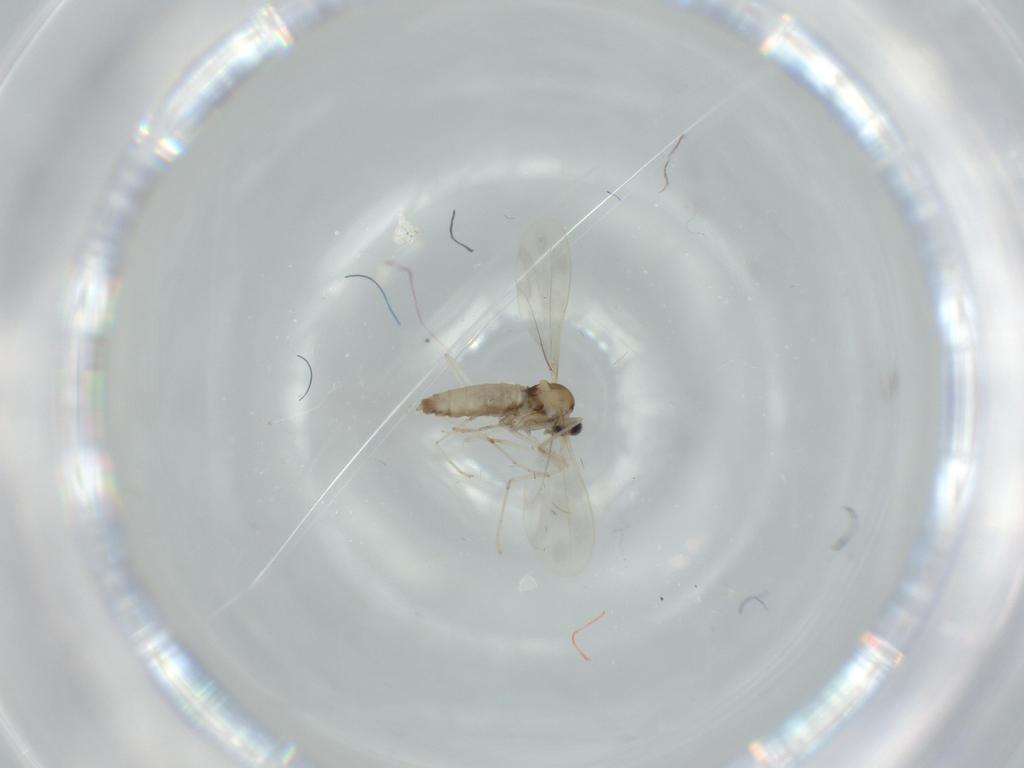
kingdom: Animalia
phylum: Arthropoda
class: Insecta
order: Diptera
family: Cecidomyiidae
